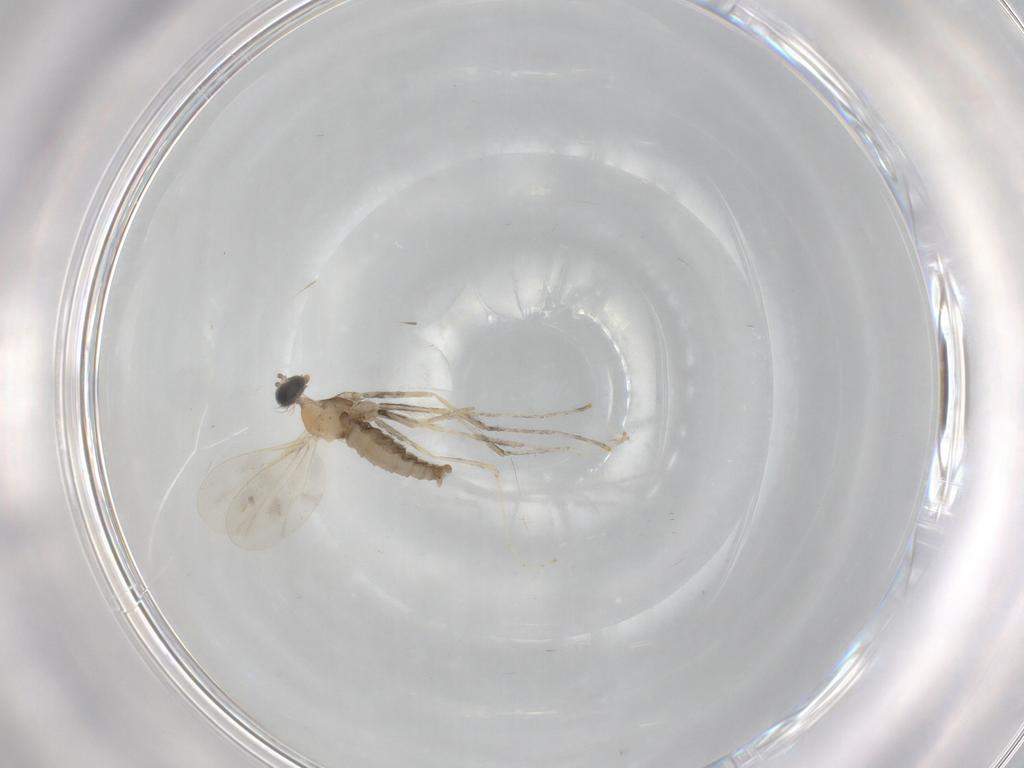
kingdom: Animalia
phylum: Arthropoda
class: Insecta
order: Diptera
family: Cecidomyiidae
